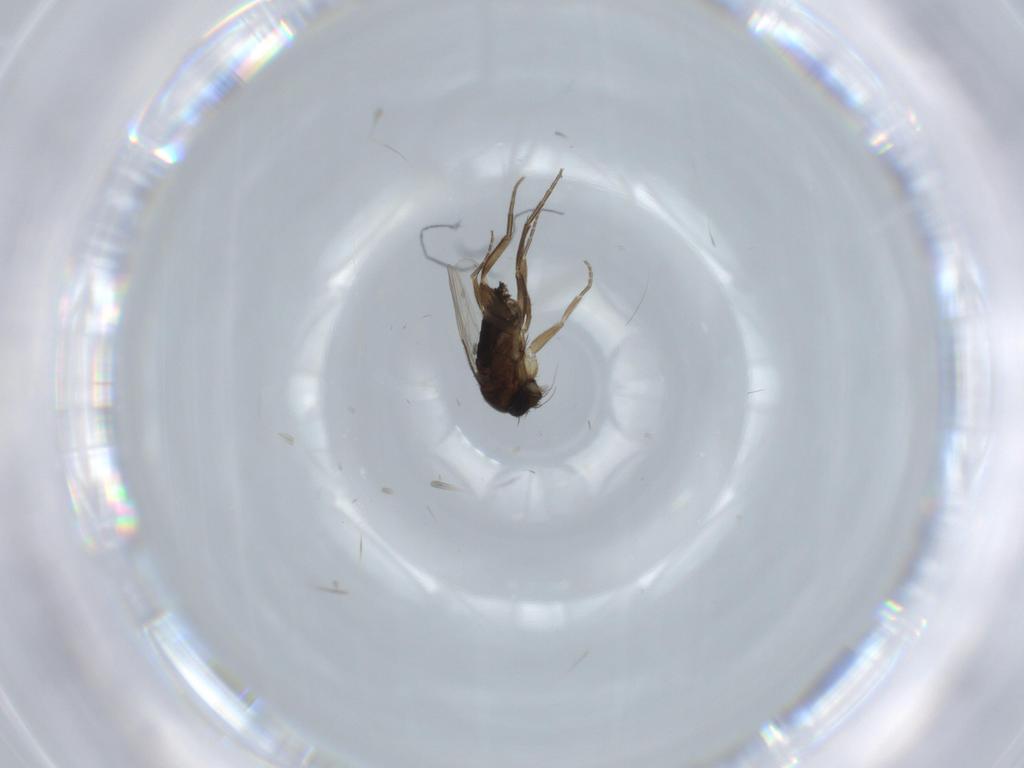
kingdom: Animalia
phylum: Arthropoda
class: Insecta
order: Diptera
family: Phoridae
